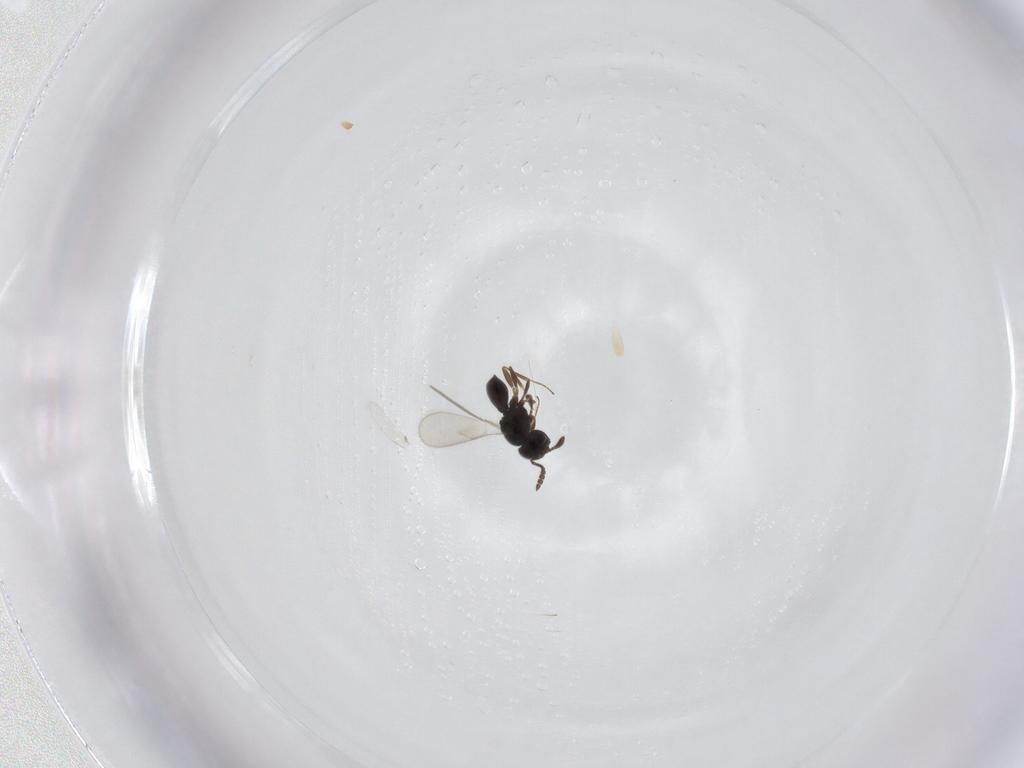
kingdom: Animalia
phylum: Arthropoda
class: Insecta
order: Hymenoptera
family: Scelionidae
